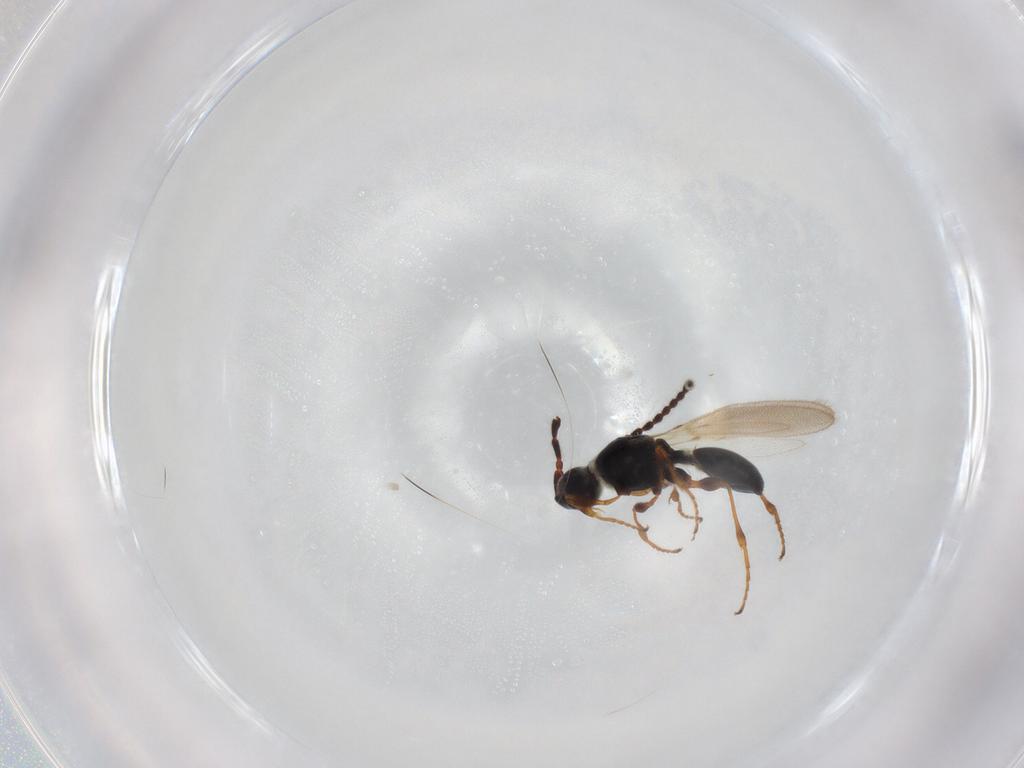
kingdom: Animalia
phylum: Arthropoda
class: Insecta
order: Hymenoptera
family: Diapriidae
